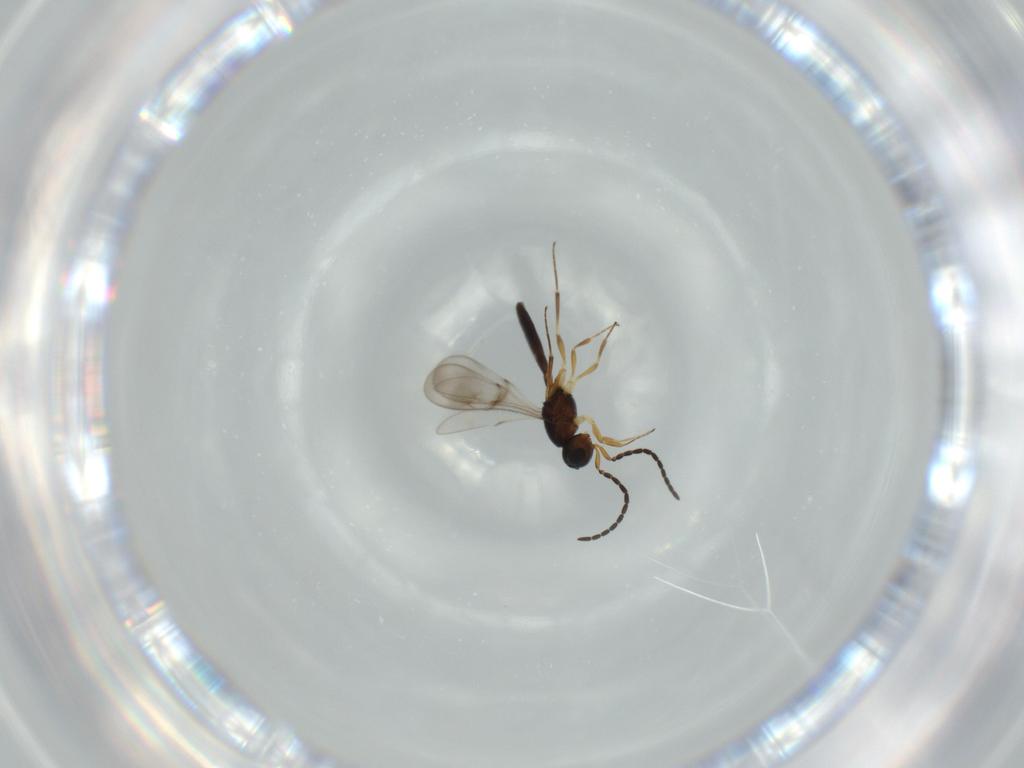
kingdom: Animalia
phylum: Arthropoda
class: Insecta
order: Hymenoptera
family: Scelionidae
